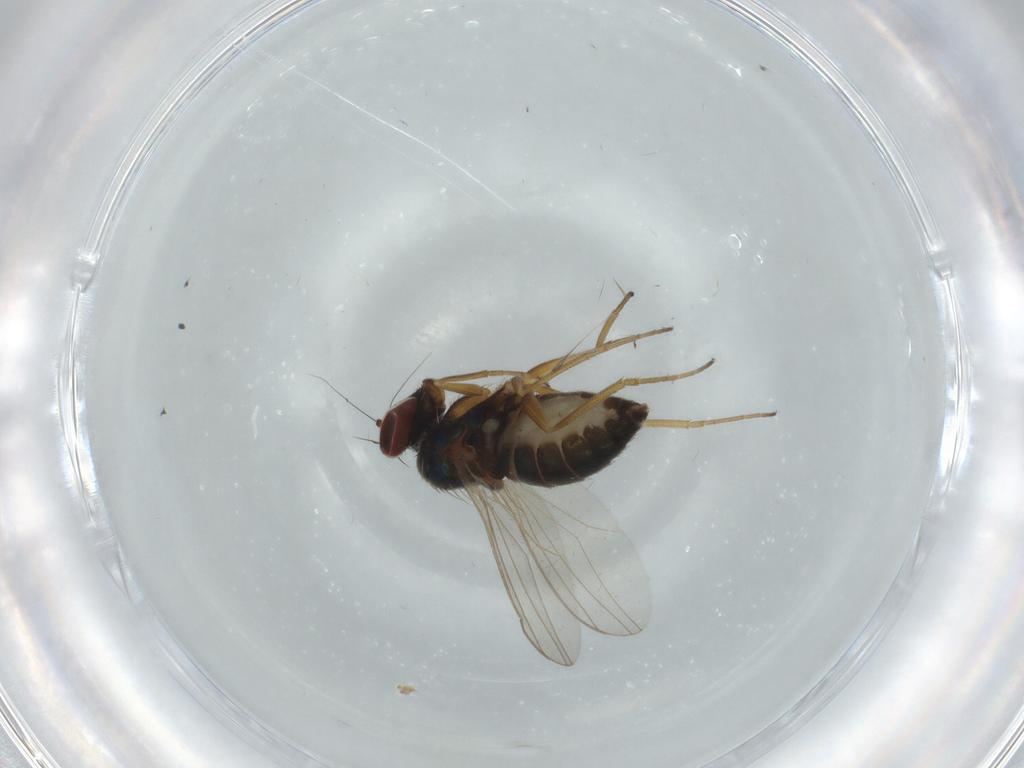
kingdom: Animalia
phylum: Arthropoda
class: Insecta
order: Diptera
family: Dolichopodidae
